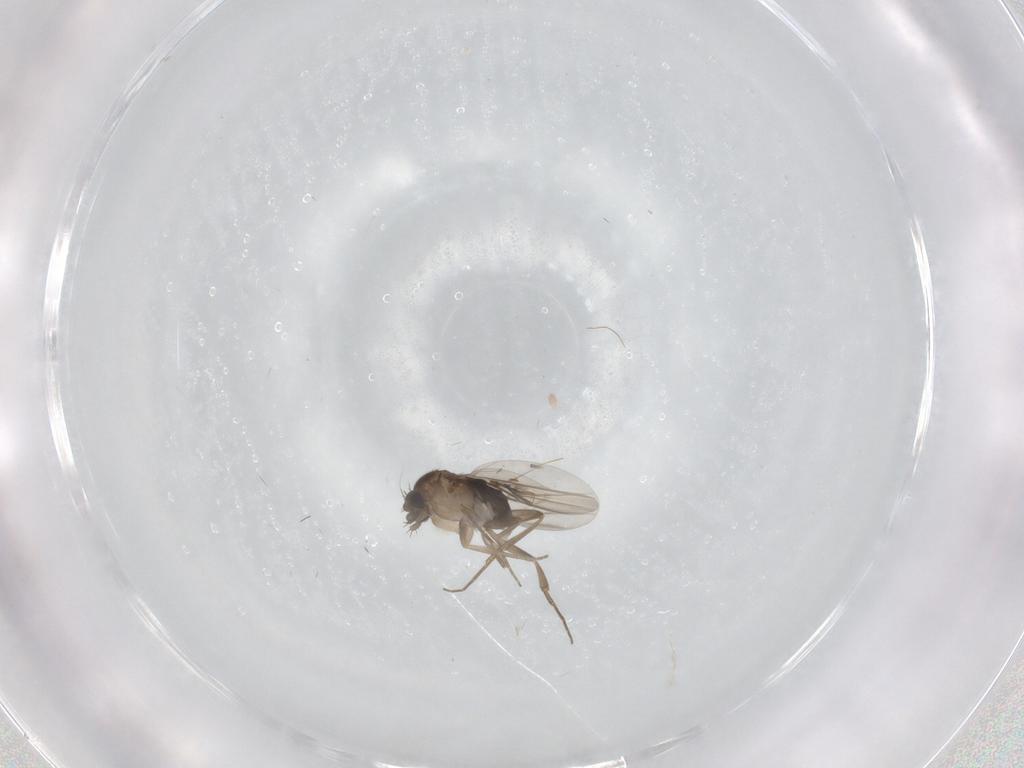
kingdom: Animalia
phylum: Arthropoda
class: Insecta
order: Diptera
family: Phoridae
